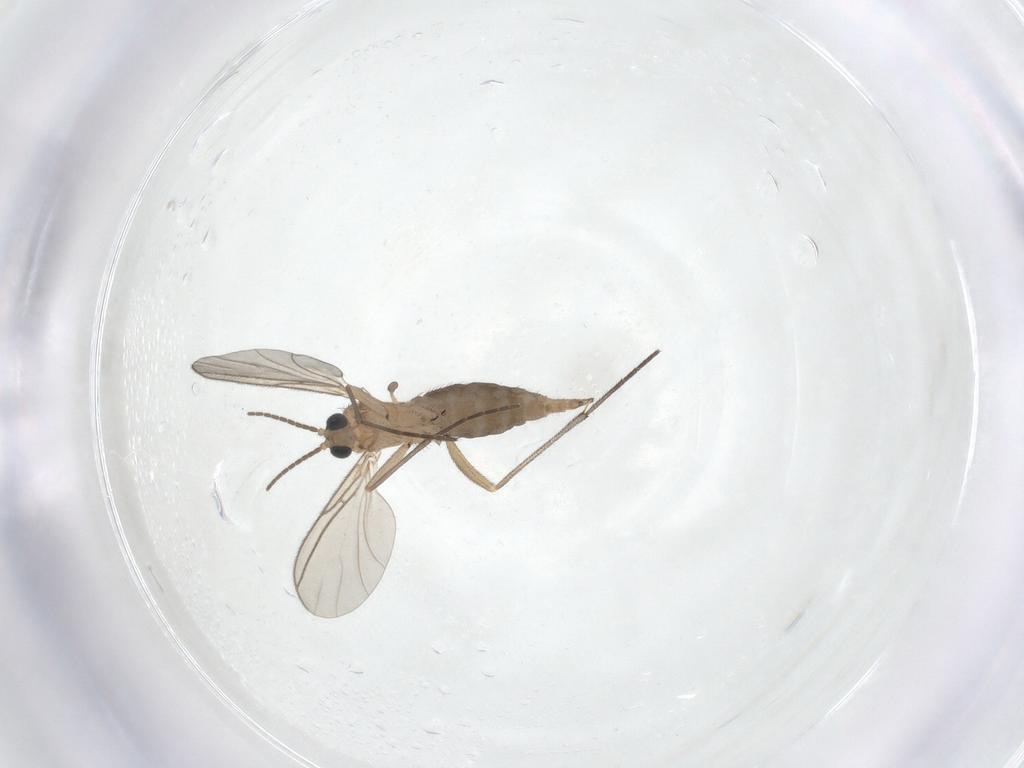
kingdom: Animalia
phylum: Arthropoda
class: Insecta
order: Diptera
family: Sciaridae
